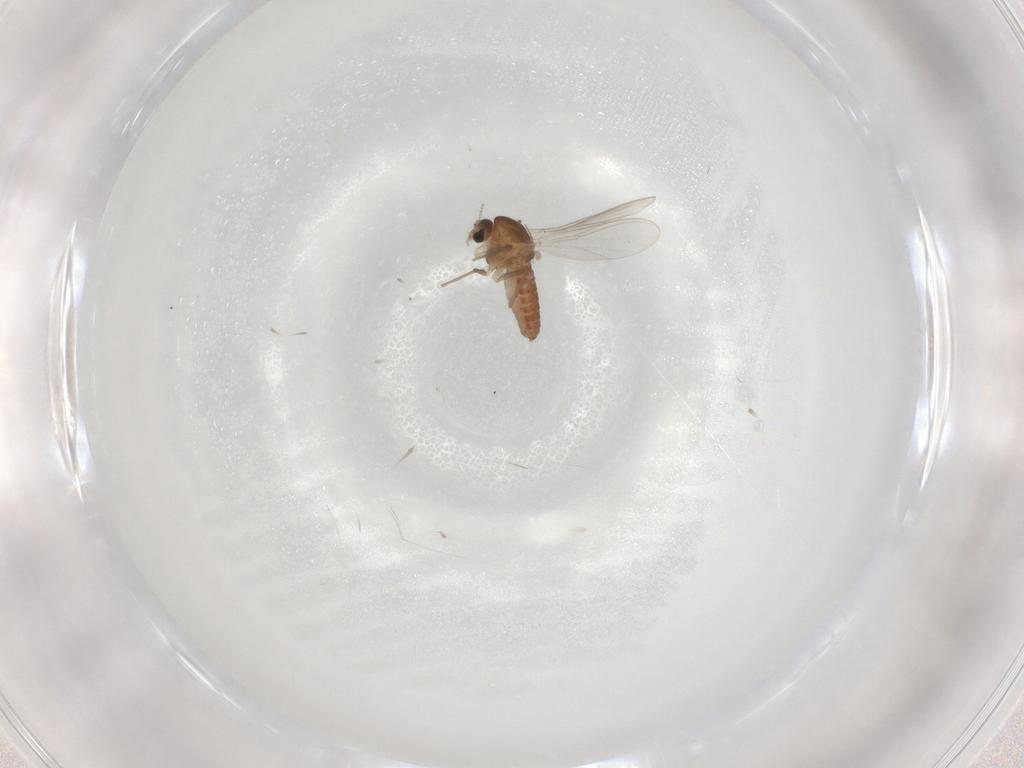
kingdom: Animalia
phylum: Arthropoda
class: Insecta
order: Diptera
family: Chironomidae
